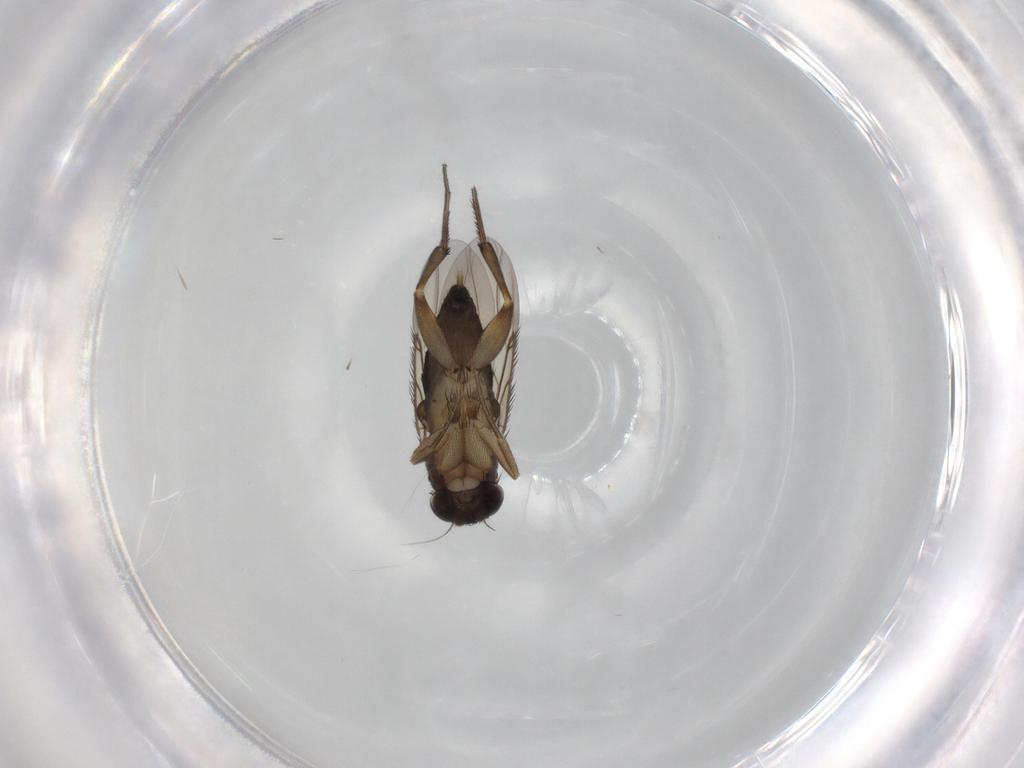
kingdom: Animalia
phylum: Arthropoda
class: Insecta
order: Diptera
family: Phoridae
